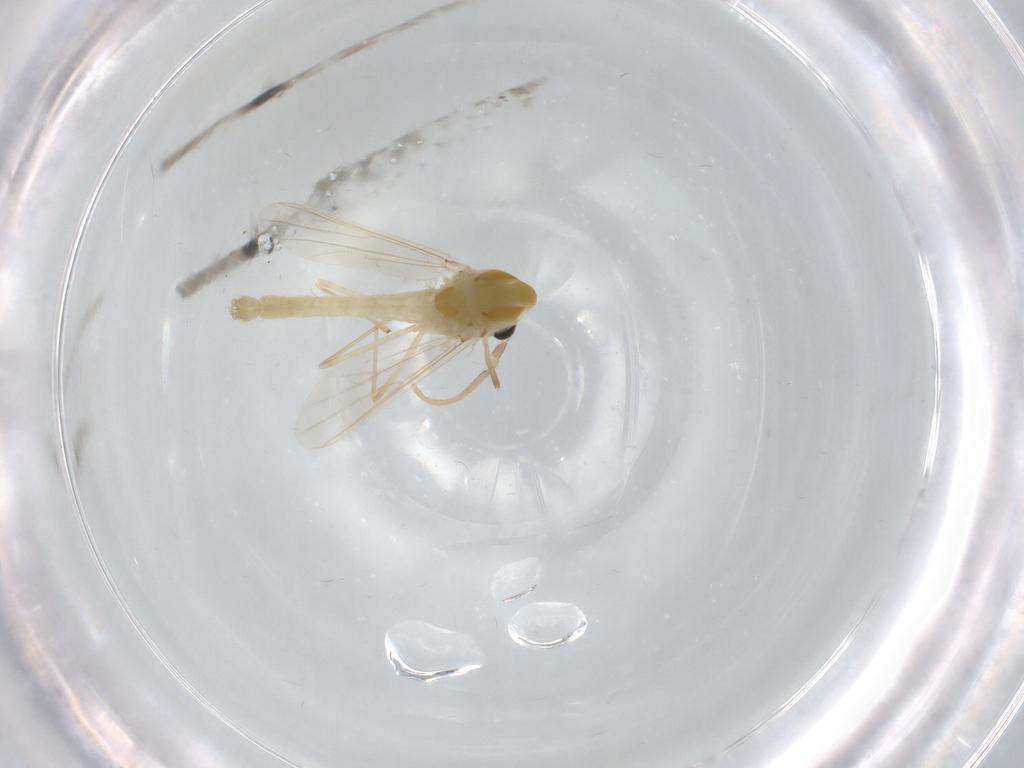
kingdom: Animalia
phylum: Arthropoda
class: Insecta
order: Diptera
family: Chironomidae
